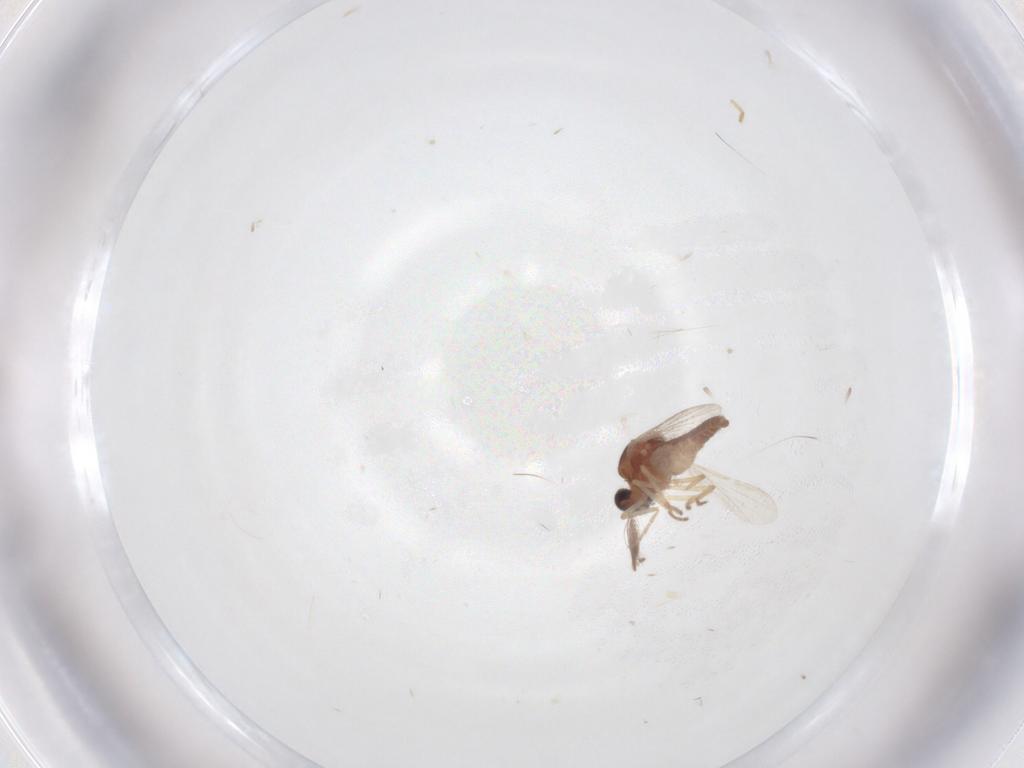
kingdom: Animalia
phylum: Arthropoda
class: Insecta
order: Diptera
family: Ceratopogonidae
